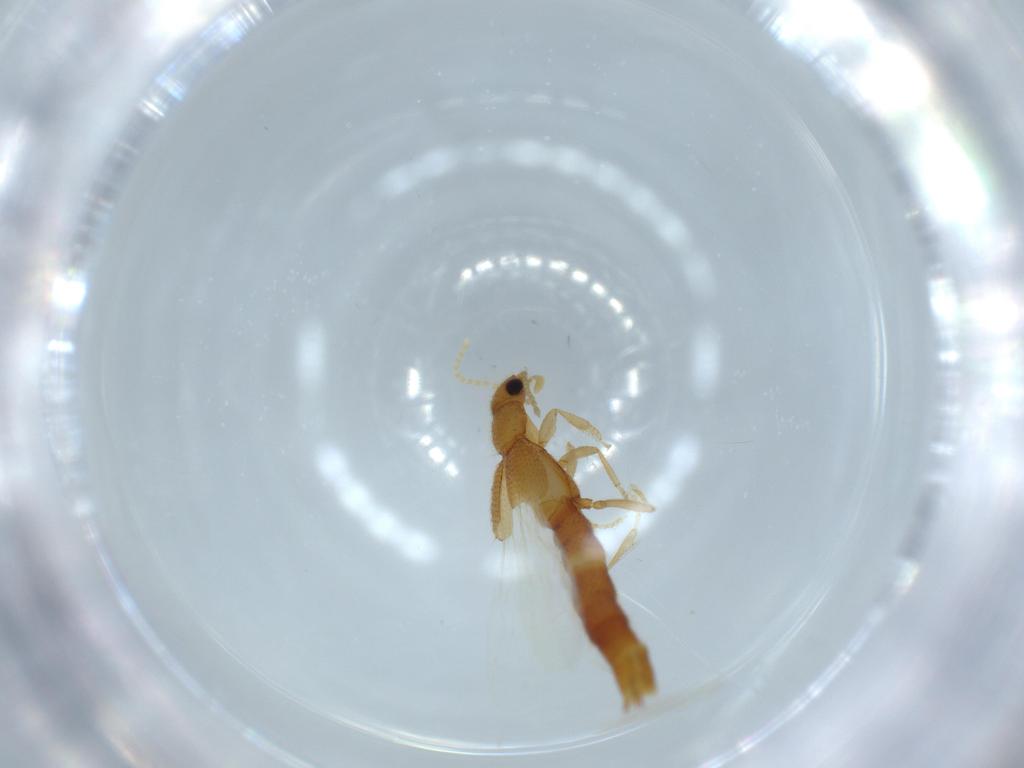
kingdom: Animalia
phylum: Arthropoda
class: Insecta
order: Coleoptera
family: Staphylinidae
